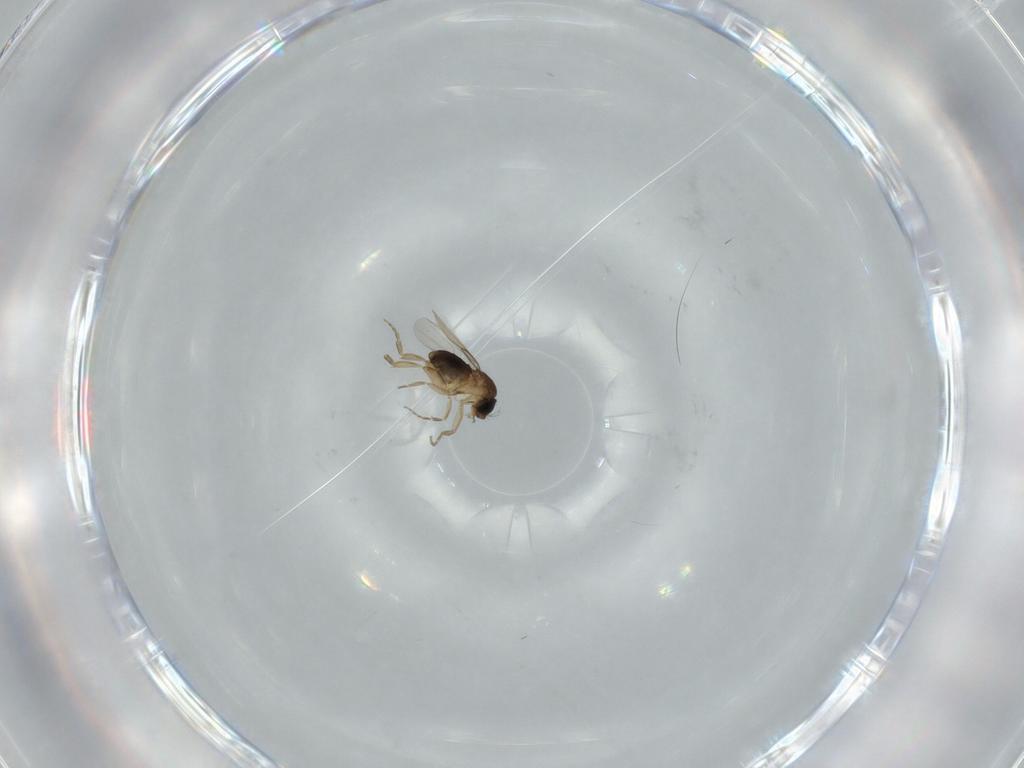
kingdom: Animalia
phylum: Arthropoda
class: Insecta
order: Diptera
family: Phoridae
